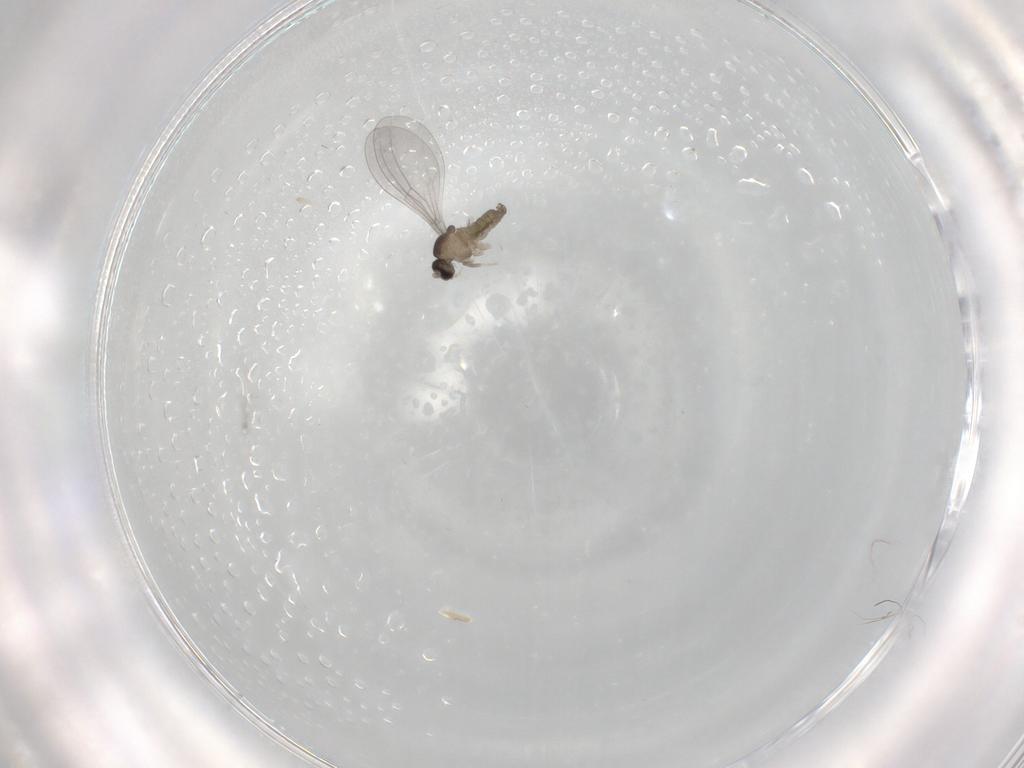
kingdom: Animalia
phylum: Arthropoda
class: Insecta
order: Diptera
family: Cecidomyiidae
